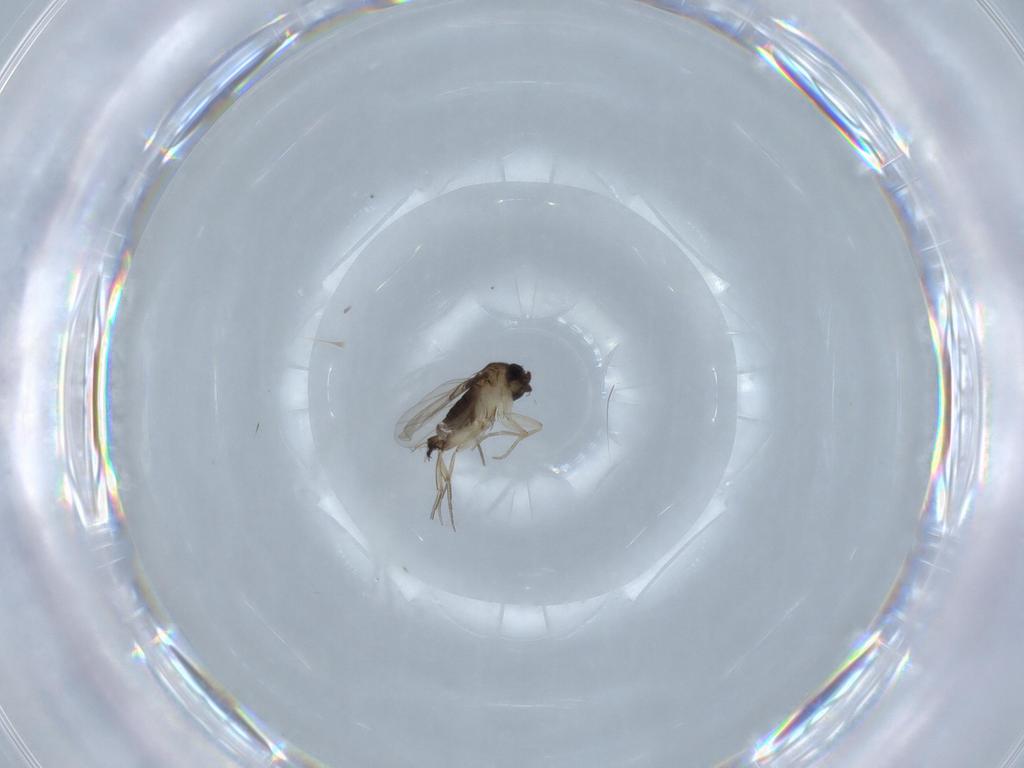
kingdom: Animalia
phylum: Arthropoda
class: Insecta
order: Diptera
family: Phoridae
